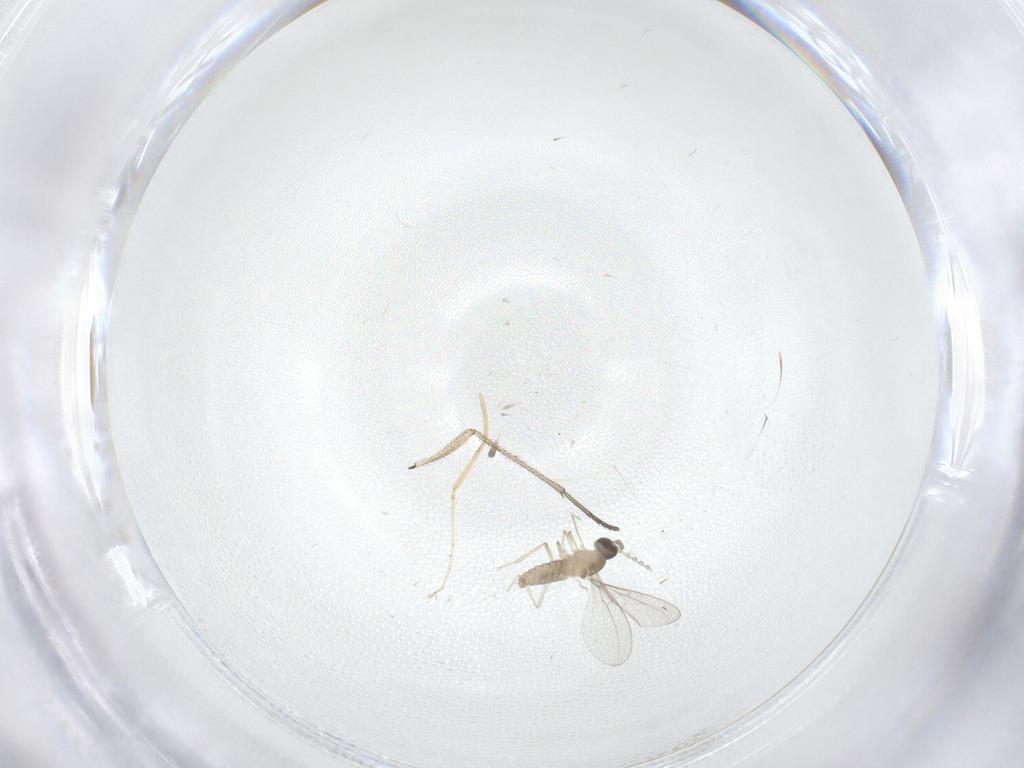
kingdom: Animalia
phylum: Arthropoda
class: Insecta
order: Diptera
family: Cecidomyiidae
